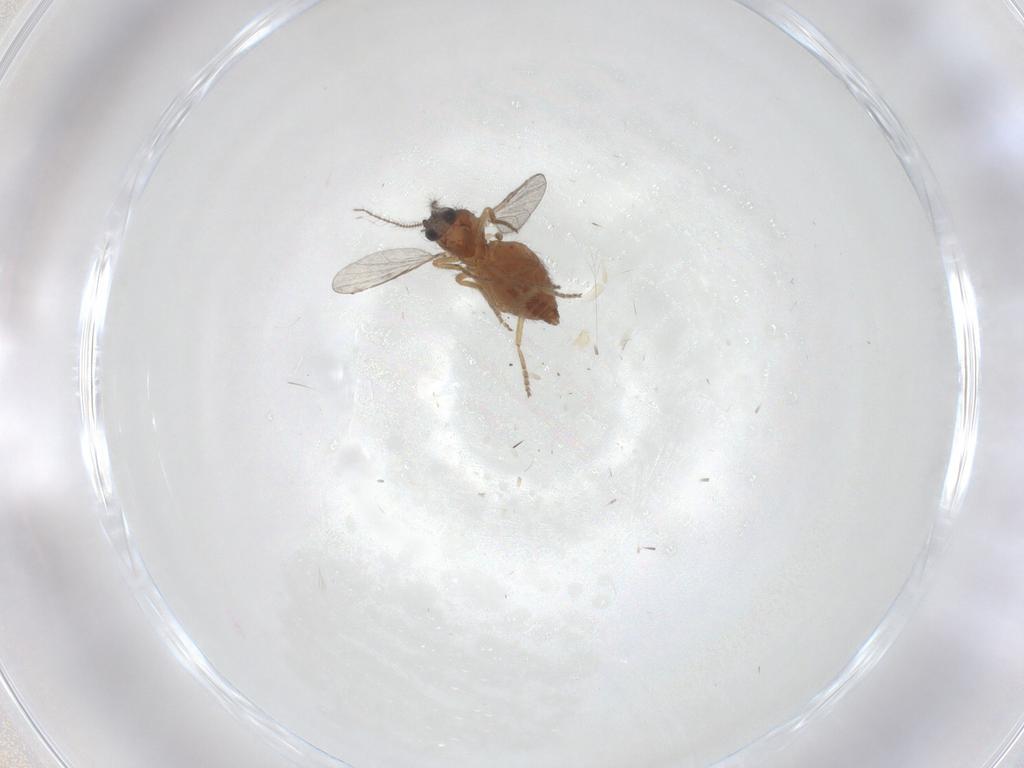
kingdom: Animalia
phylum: Arthropoda
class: Insecta
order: Diptera
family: Ceratopogonidae
